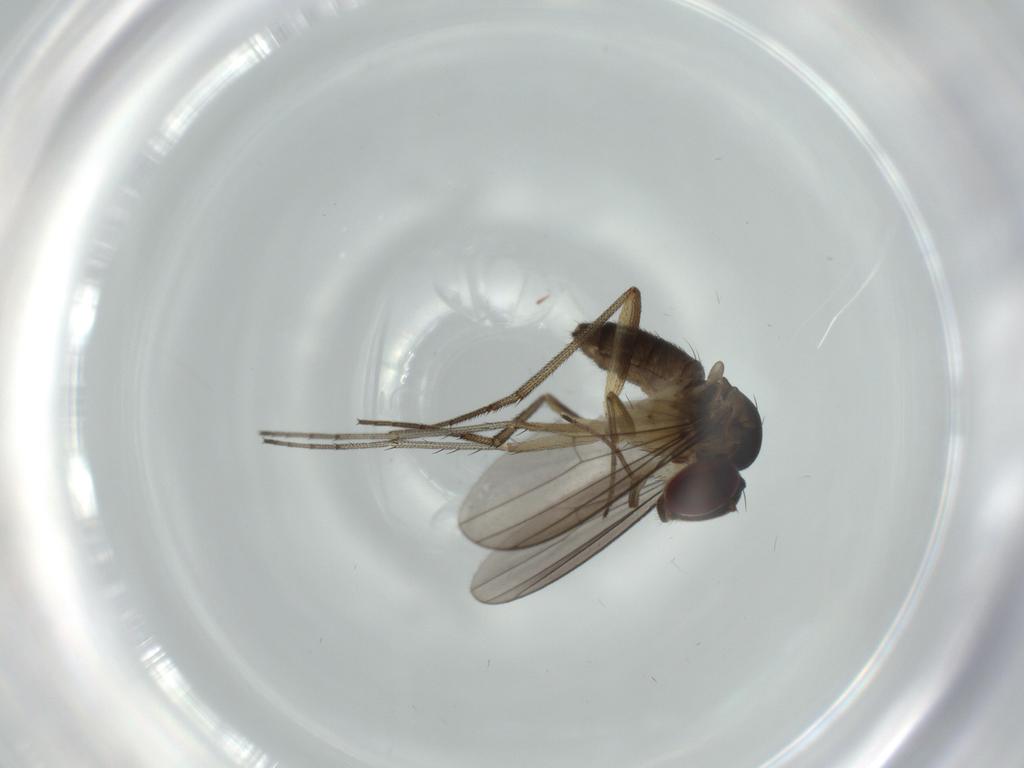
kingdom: Animalia
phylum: Arthropoda
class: Insecta
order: Diptera
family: Dolichopodidae
